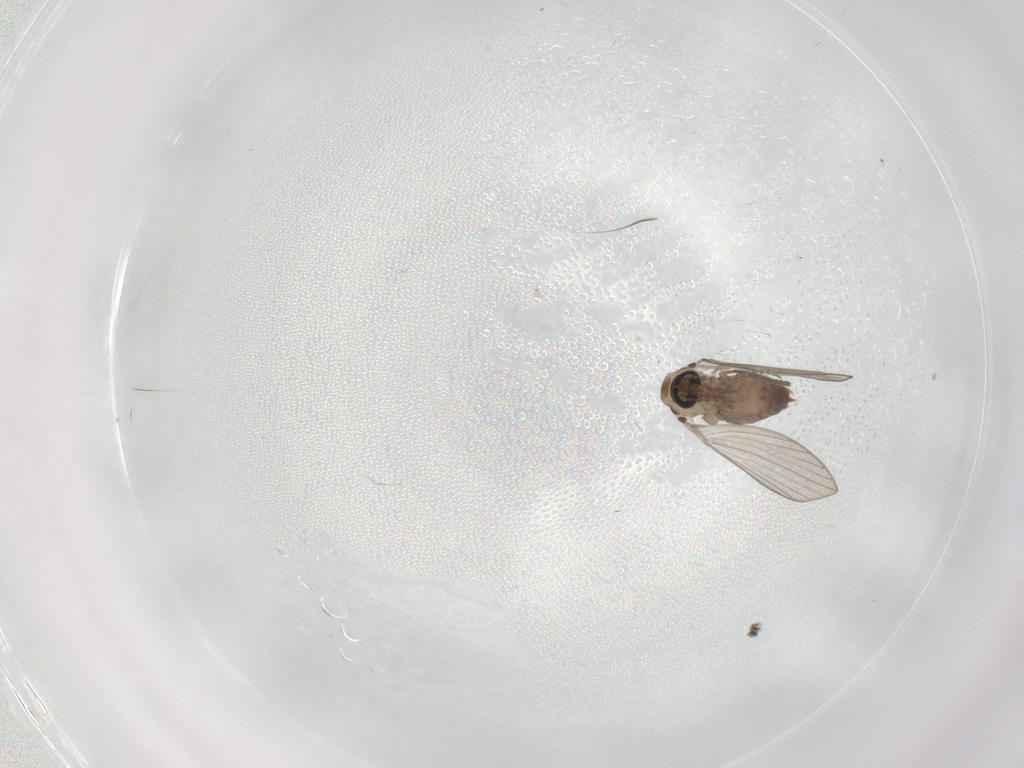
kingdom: Animalia
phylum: Arthropoda
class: Insecta
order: Diptera
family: Psychodidae
